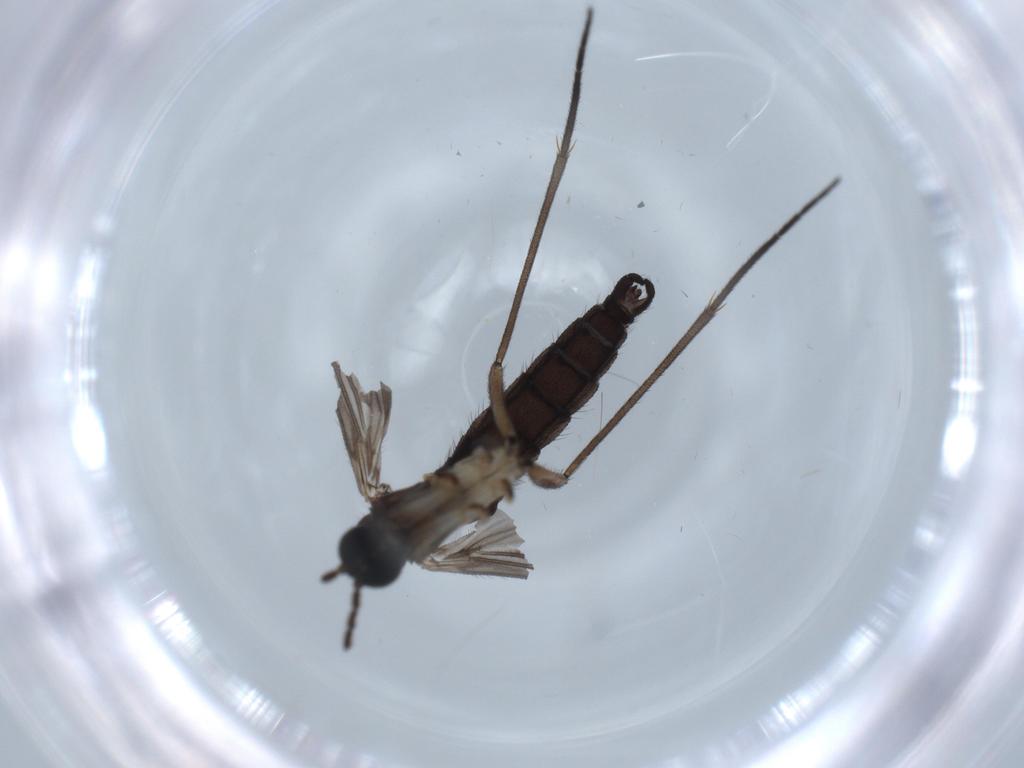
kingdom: Animalia
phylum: Arthropoda
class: Insecta
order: Diptera
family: Sciaridae
